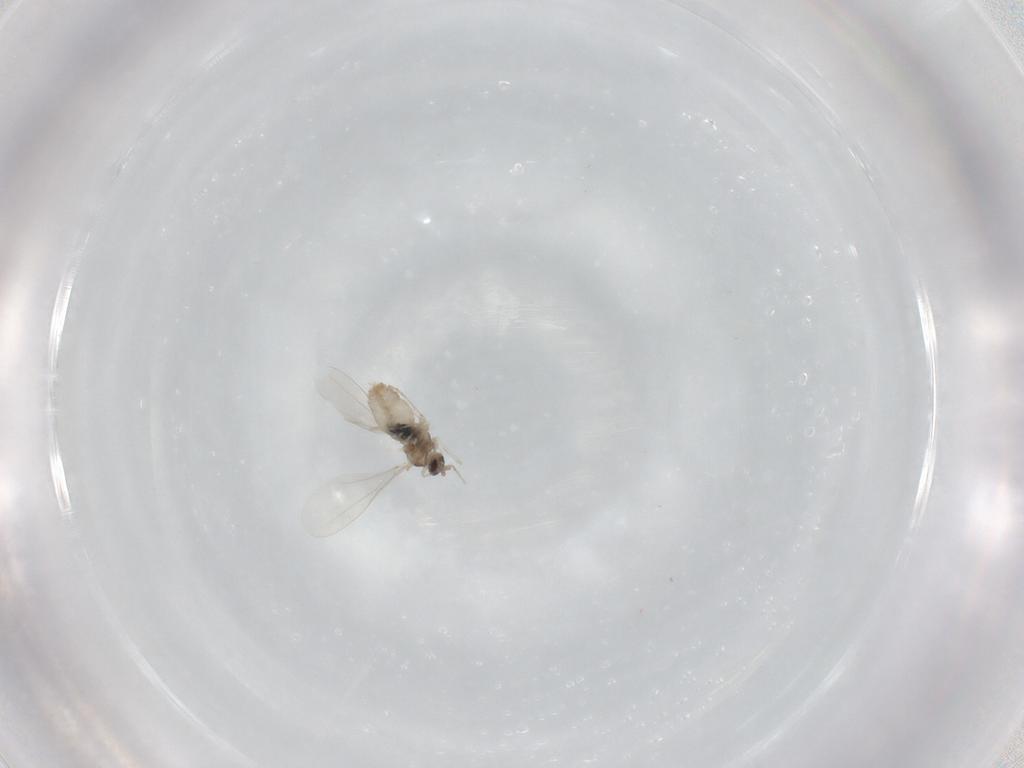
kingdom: Animalia
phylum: Arthropoda
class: Insecta
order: Diptera
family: Cecidomyiidae
